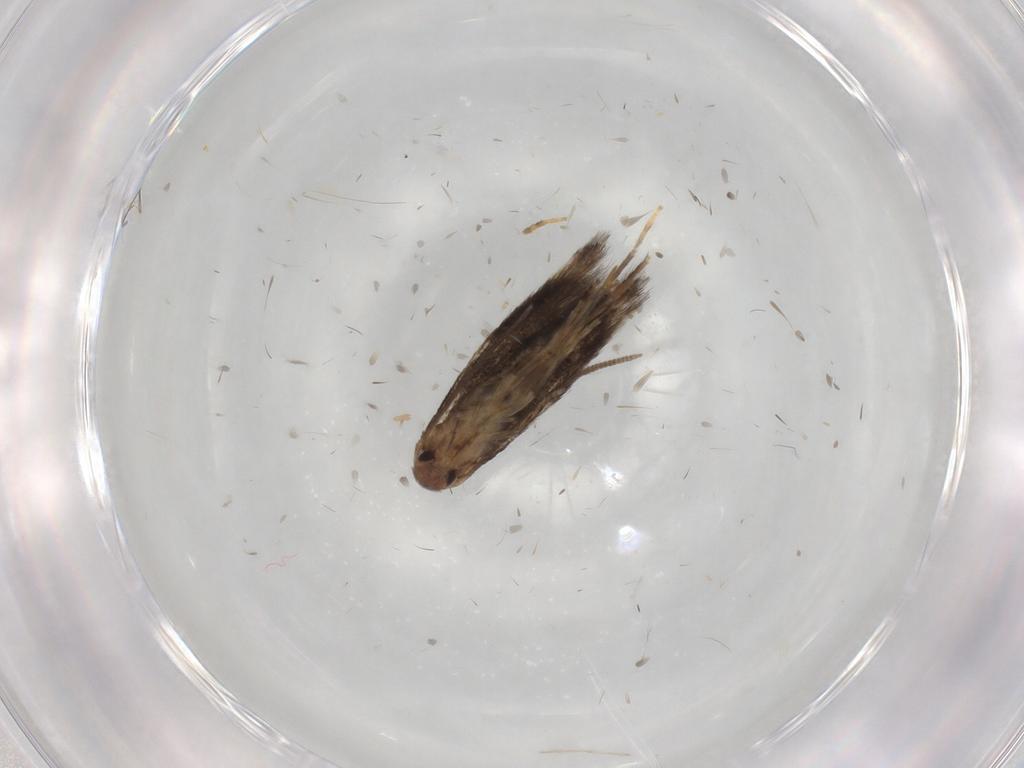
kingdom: Animalia
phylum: Arthropoda
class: Insecta
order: Lepidoptera
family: Elachistidae
